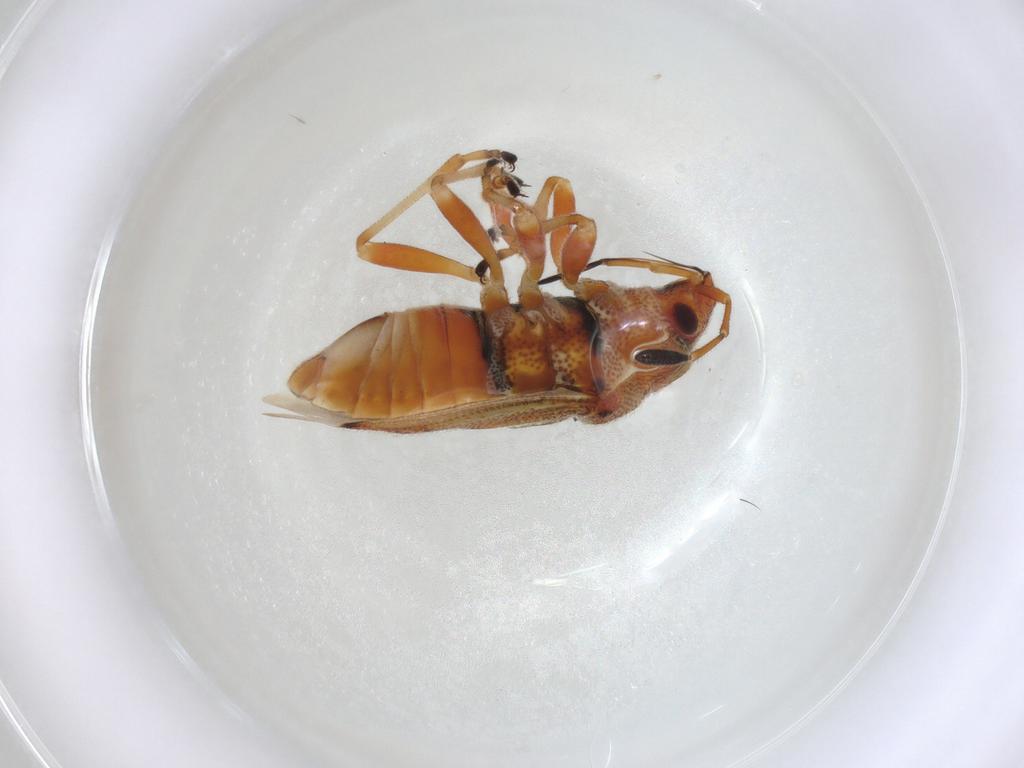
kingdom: Animalia
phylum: Arthropoda
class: Insecta
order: Hemiptera
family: Lygaeidae
